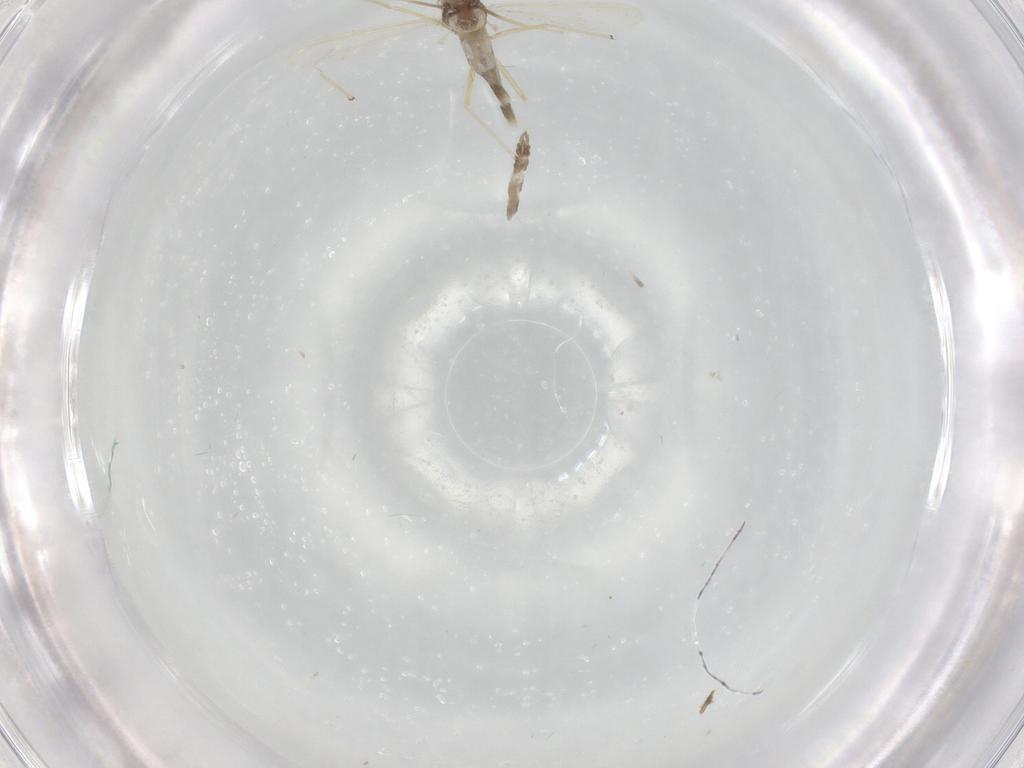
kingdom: Animalia
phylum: Arthropoda
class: Insecta
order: Diptera
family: Chironomidae
